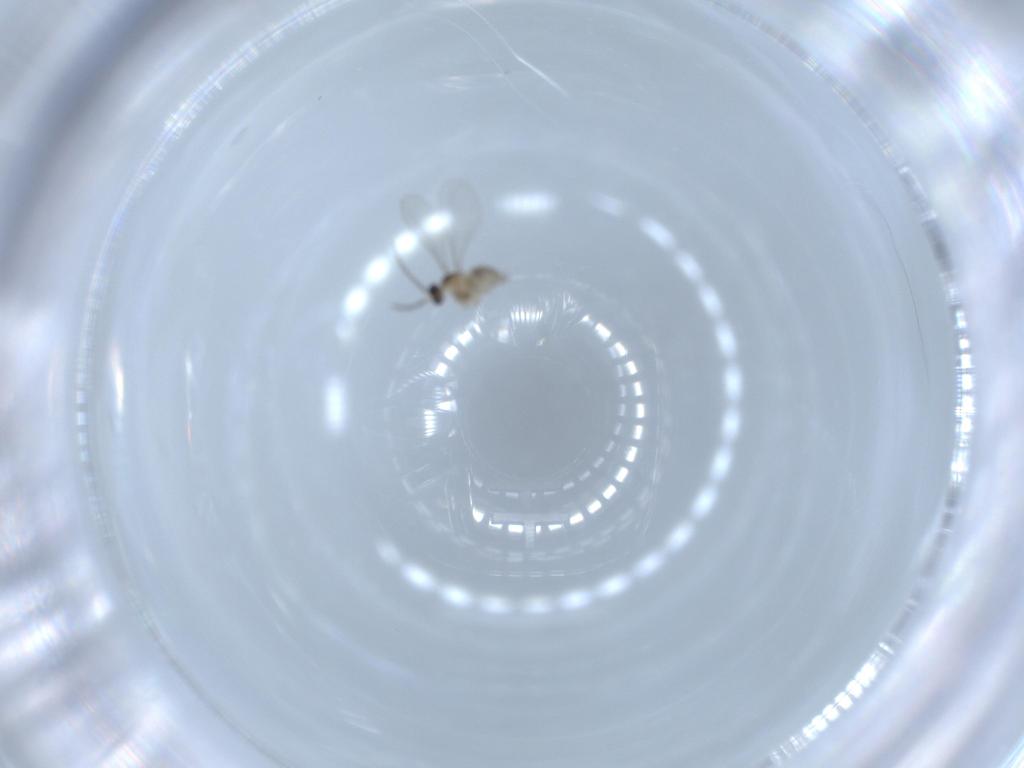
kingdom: Animalia
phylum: Arthropoda
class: Insecta
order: Diptera
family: Cecidomyiidae
